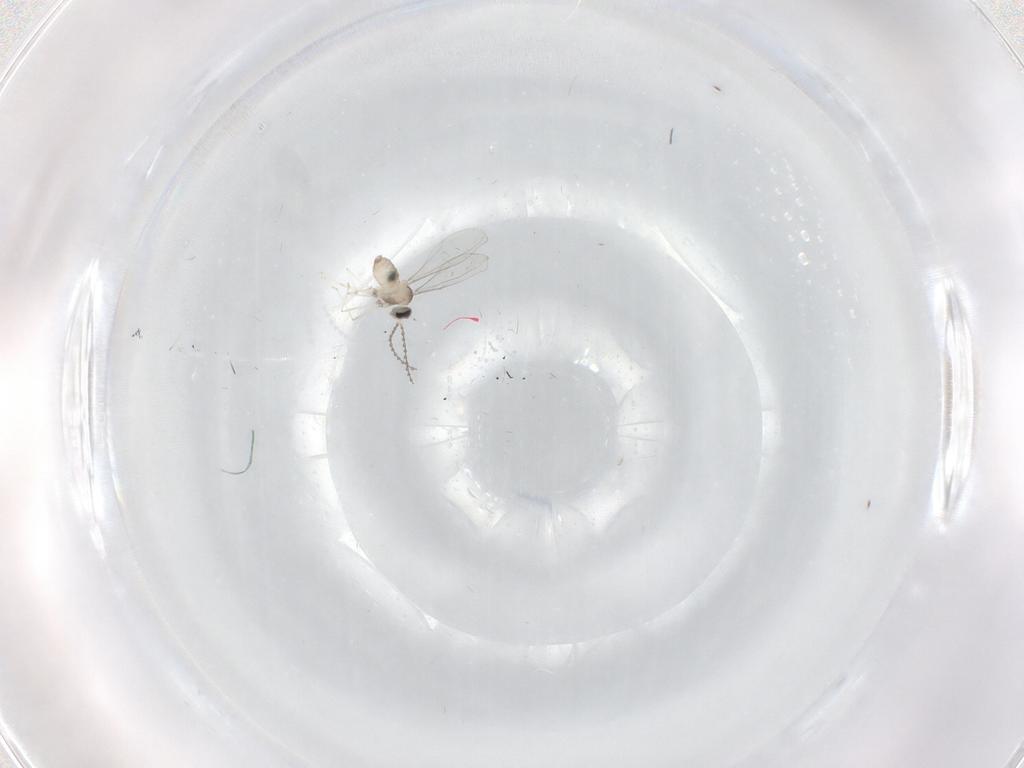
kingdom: Animalia
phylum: Arthropoda
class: Insecta
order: Diptera
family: Cecidomyiidae
